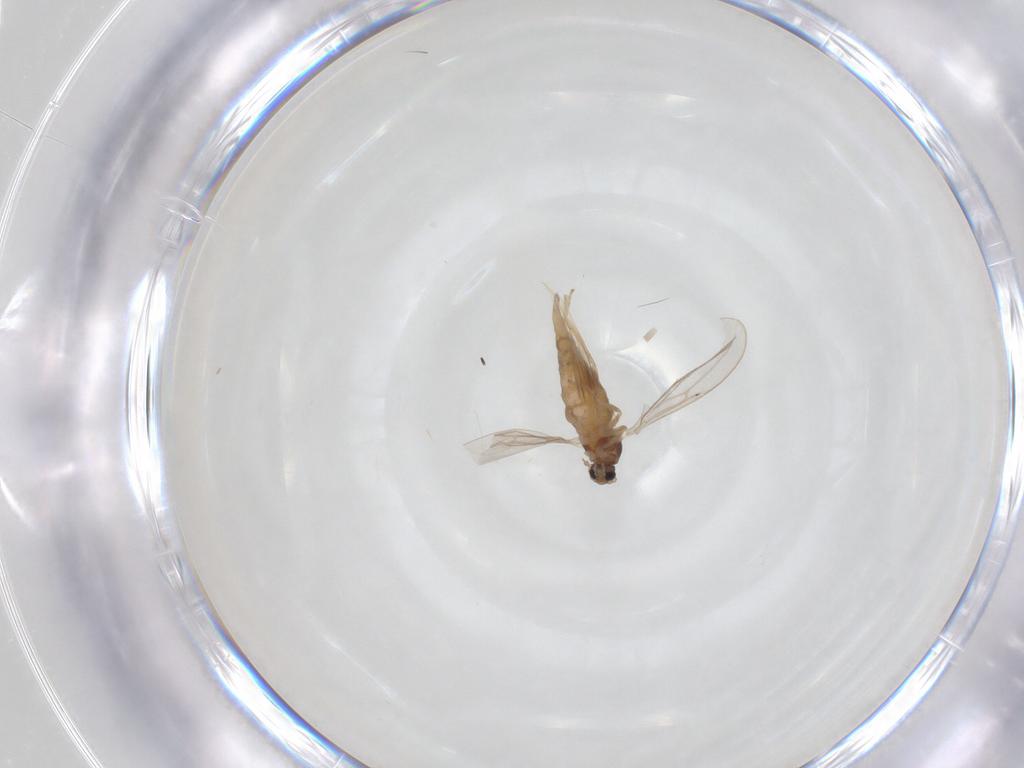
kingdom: Animalia
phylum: Arthropoda
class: Insecta
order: Diptera
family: Cecidomyiidae
